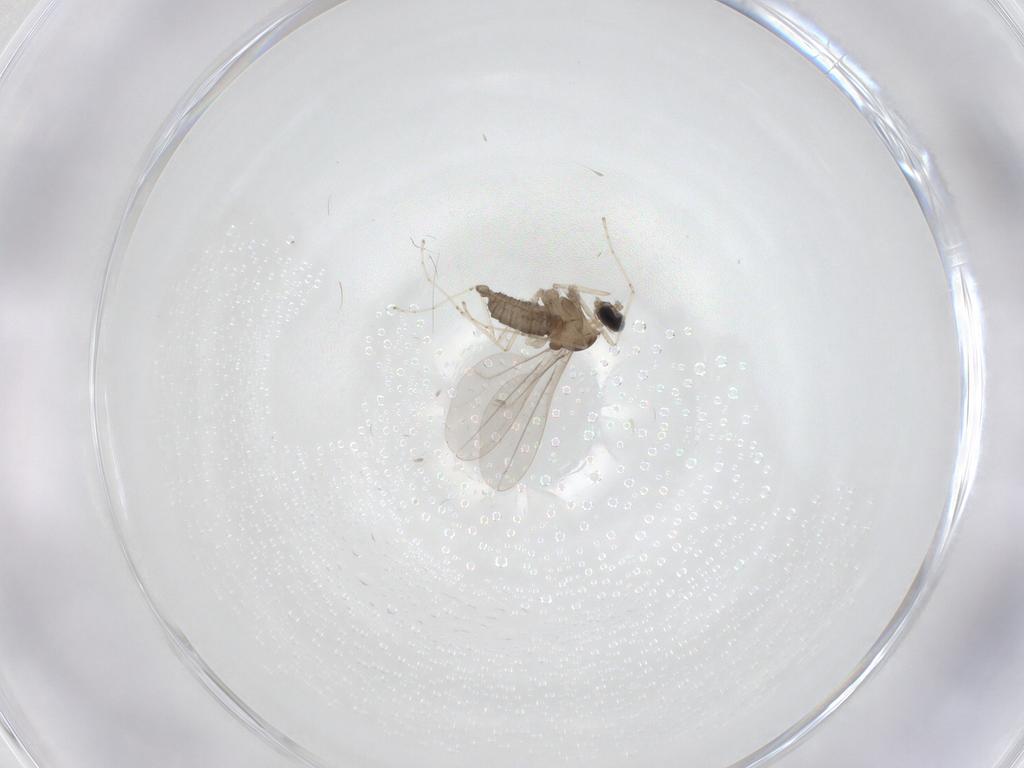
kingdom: Animalia
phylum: Arthropoda
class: Insecta
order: Diptera
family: Cecidomyiidae
